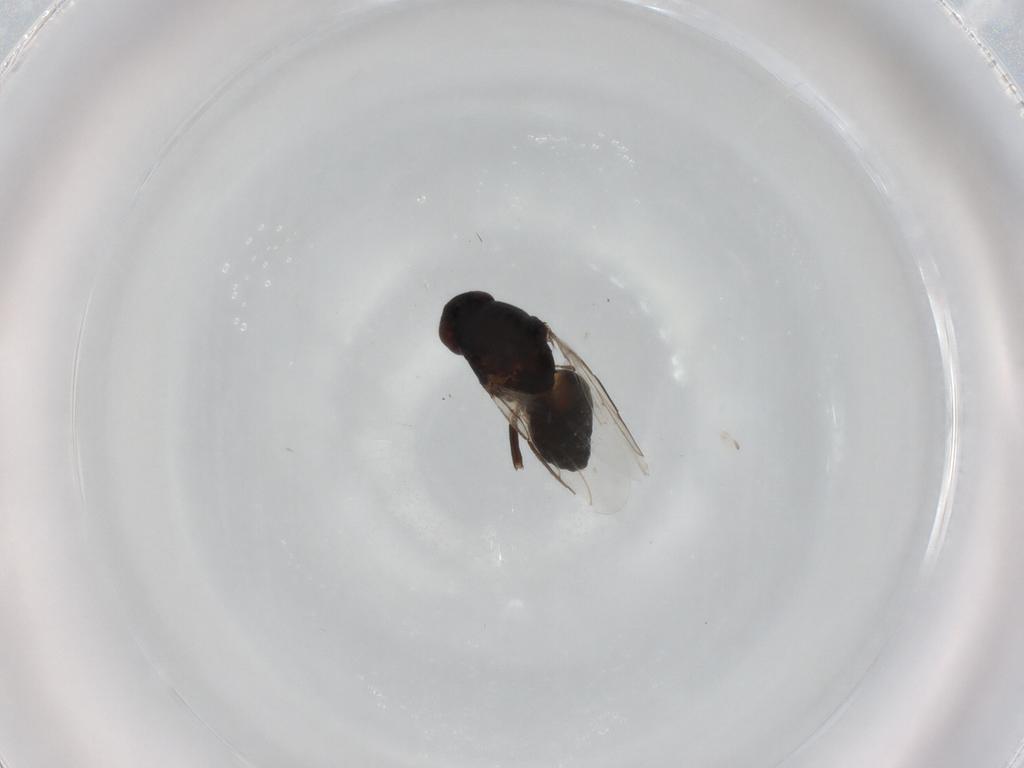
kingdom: Animalia
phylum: Arthropoda
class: Insecta
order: Diptera
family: Sphaeroceridae
